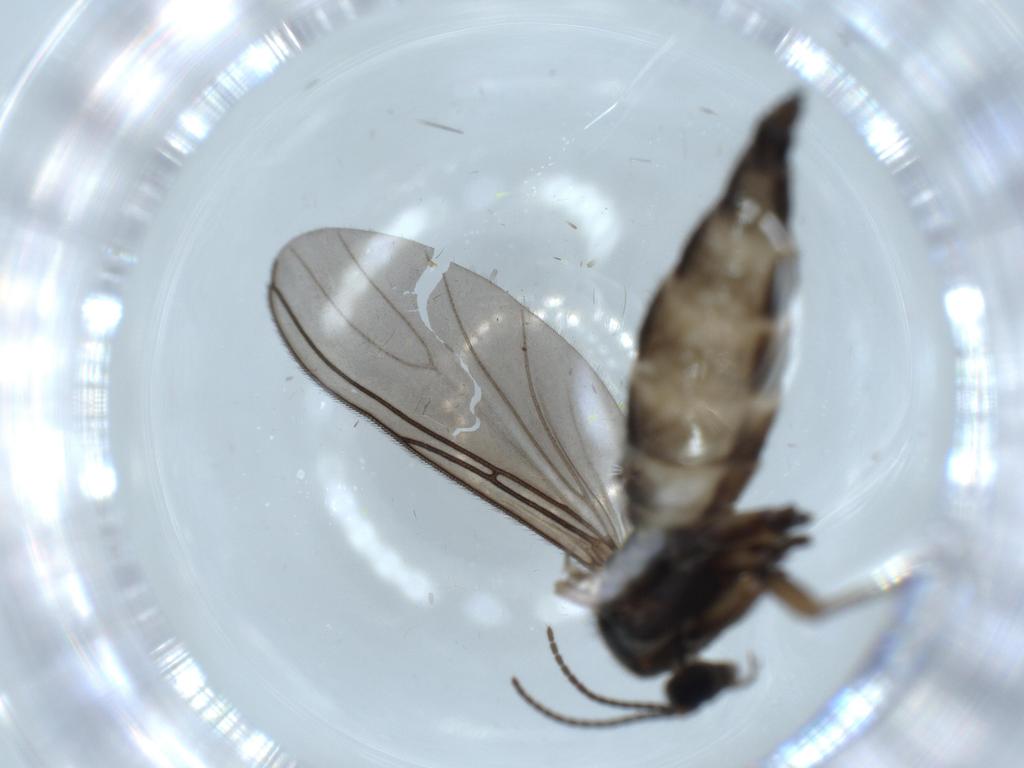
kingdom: Animalia
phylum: Arthropoda
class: Insecta
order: Diptera
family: Sciaridae
